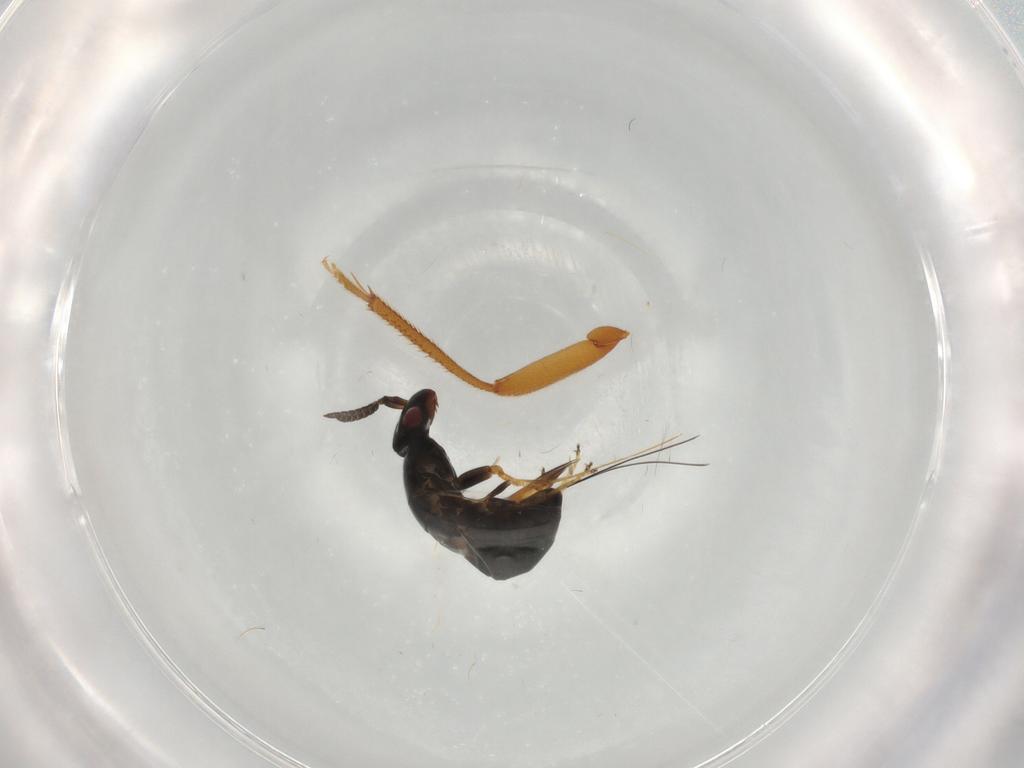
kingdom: Animalia
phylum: Arthropoda
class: Insecta
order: Hymenoptera
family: Agaonidae
